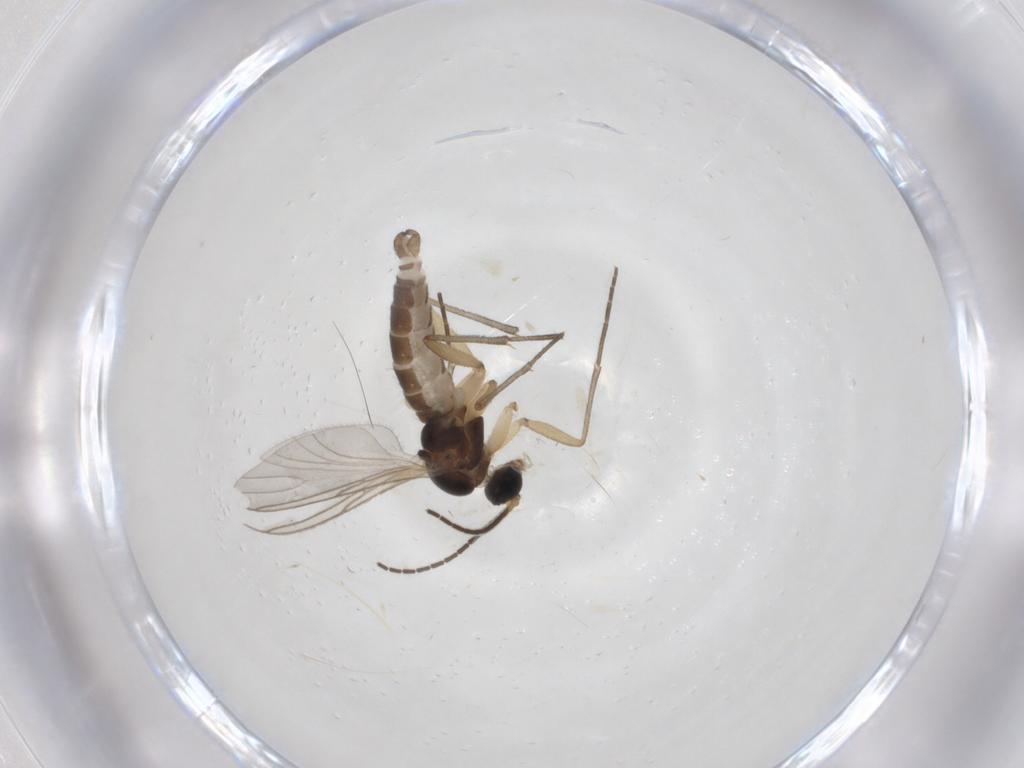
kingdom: Animalia
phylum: Arthropoda
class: Insecta
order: Diptera
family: Sciaridae
